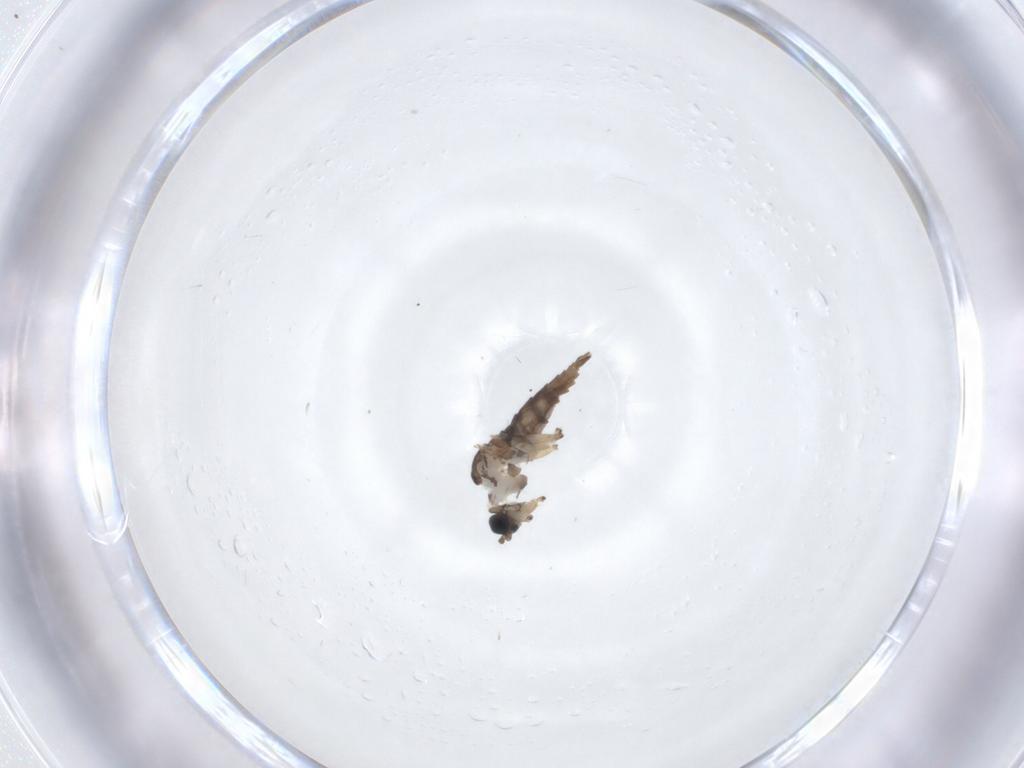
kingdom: Animalia
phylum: Arthropoda
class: Insecta
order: Diptera
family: Sciaridae
